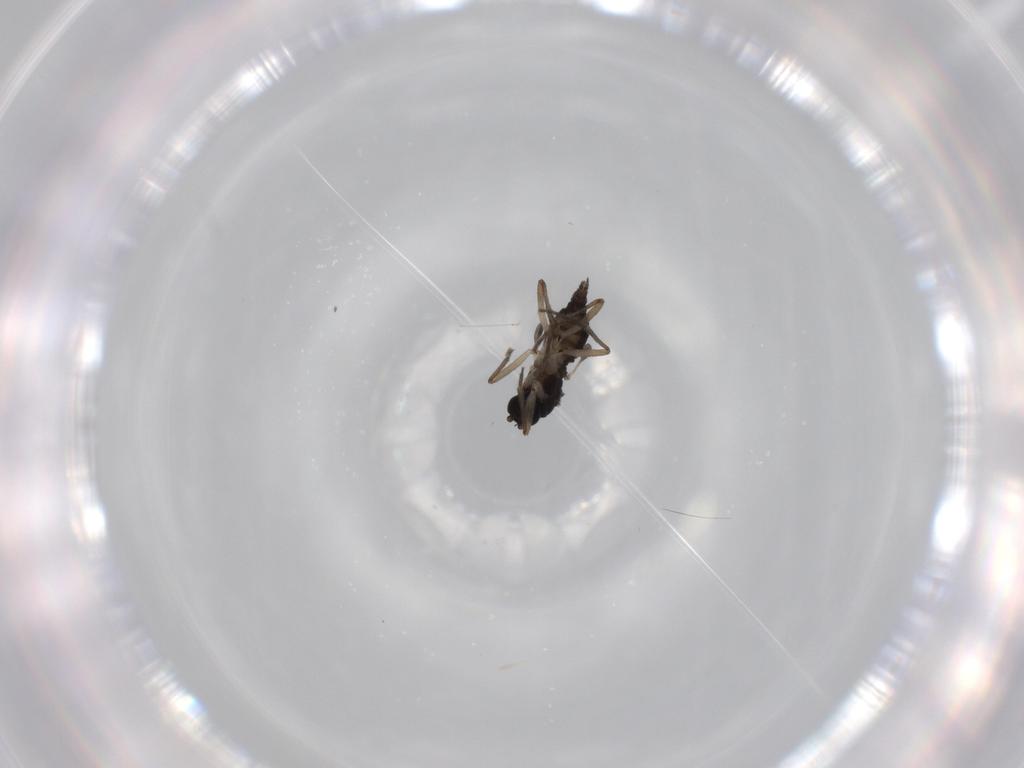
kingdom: Animalia
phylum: Arthropoda
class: Insecta
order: Diptera
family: Sciaridae
